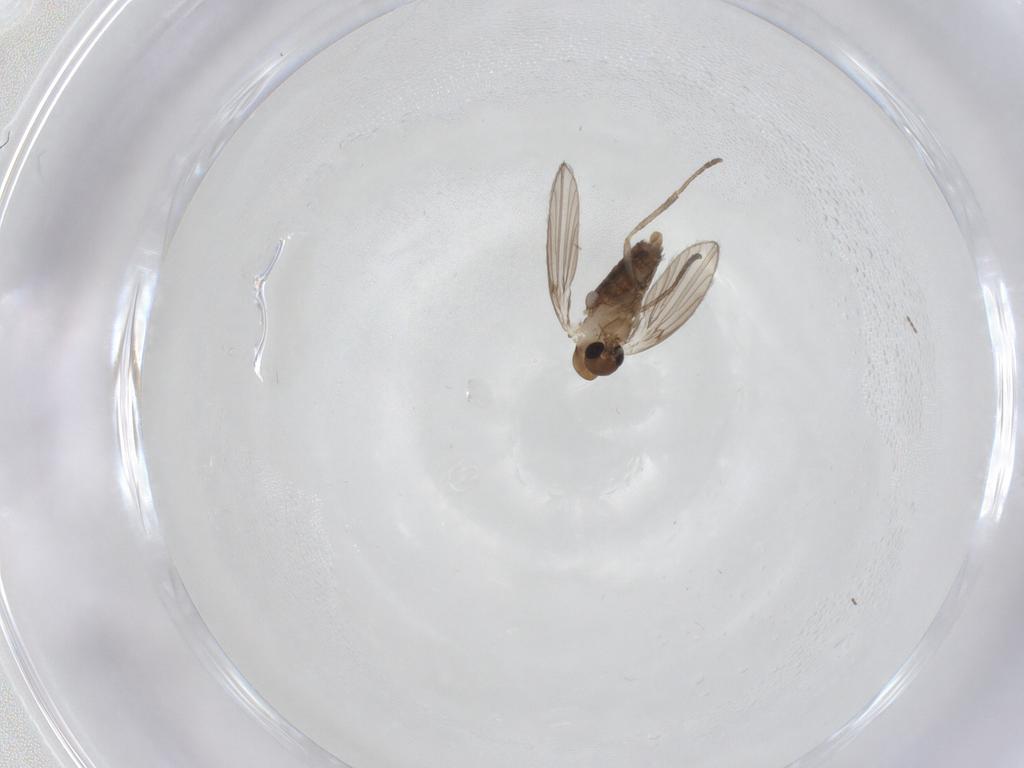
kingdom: Animalia
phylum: Arthropoda
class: Insecta
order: Diptera
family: Psychodidae
